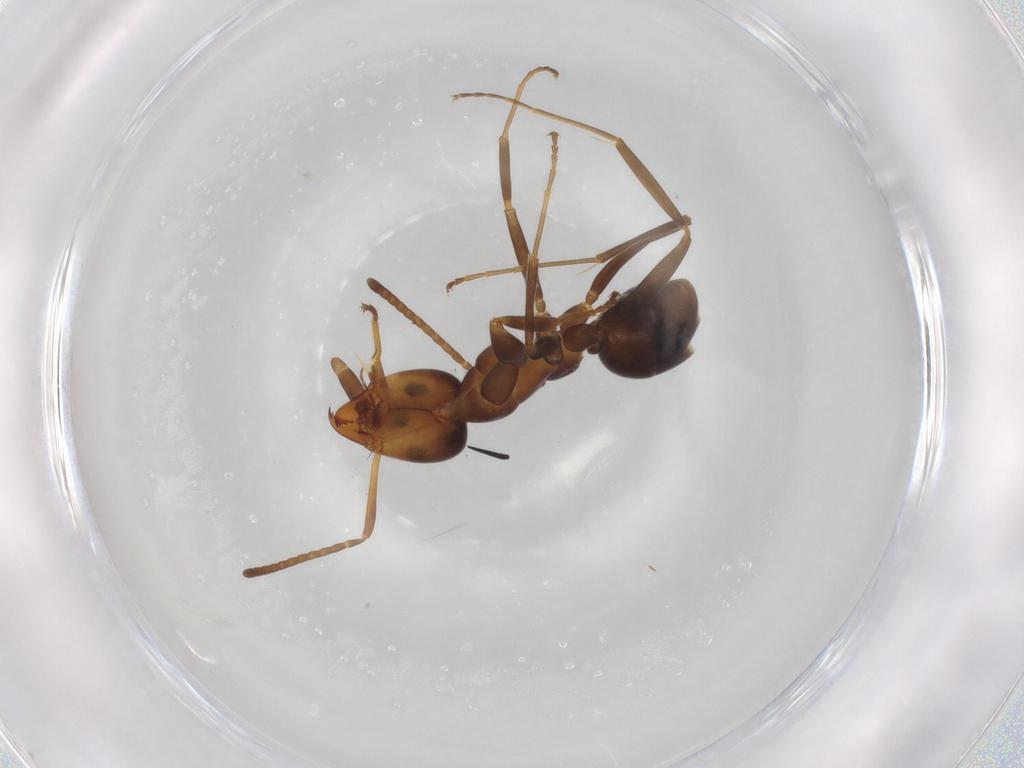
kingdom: Animalia
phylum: Arthropoda
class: Insecta
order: Hymenoptera
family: Formicidae
